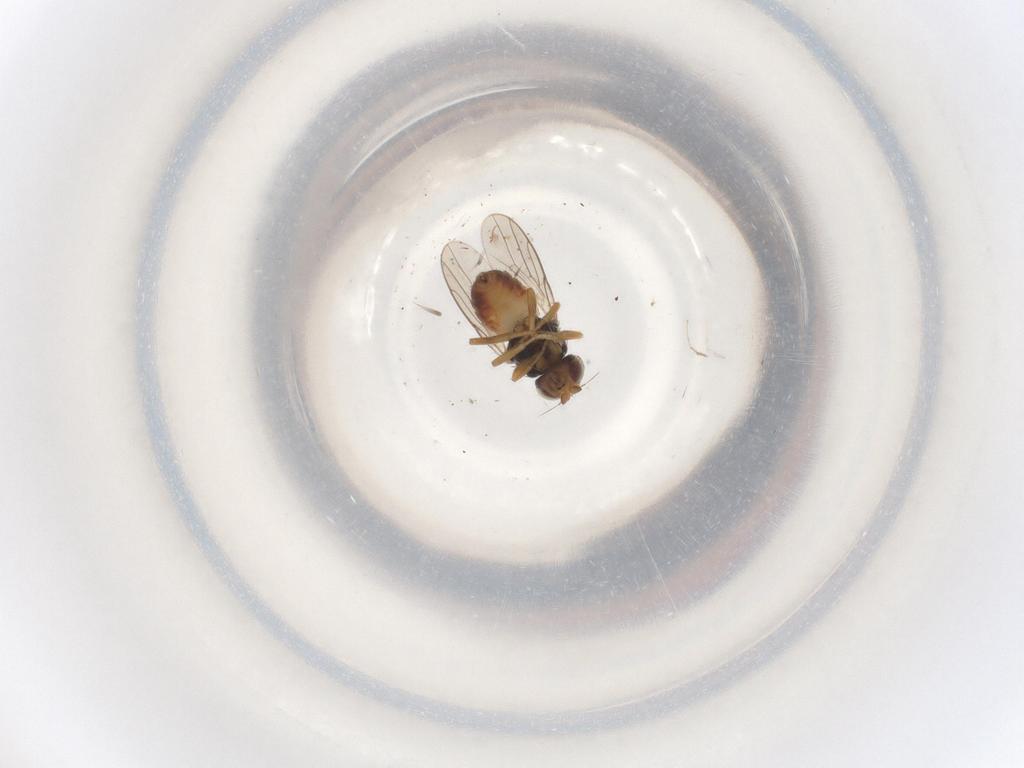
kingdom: Animalia
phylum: Arthropoda
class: Insecta
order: Diptera
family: Chloropidae
